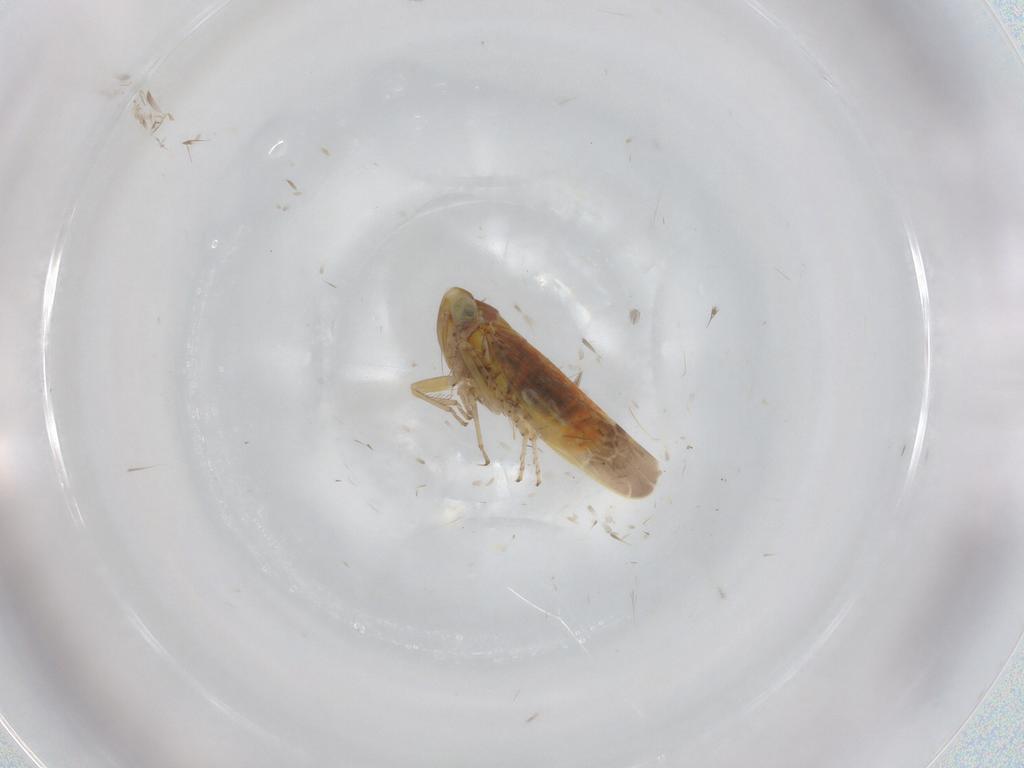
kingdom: Animalia
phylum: Arthropoda
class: Insecta
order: Hemiptera
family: Cicadellidae
